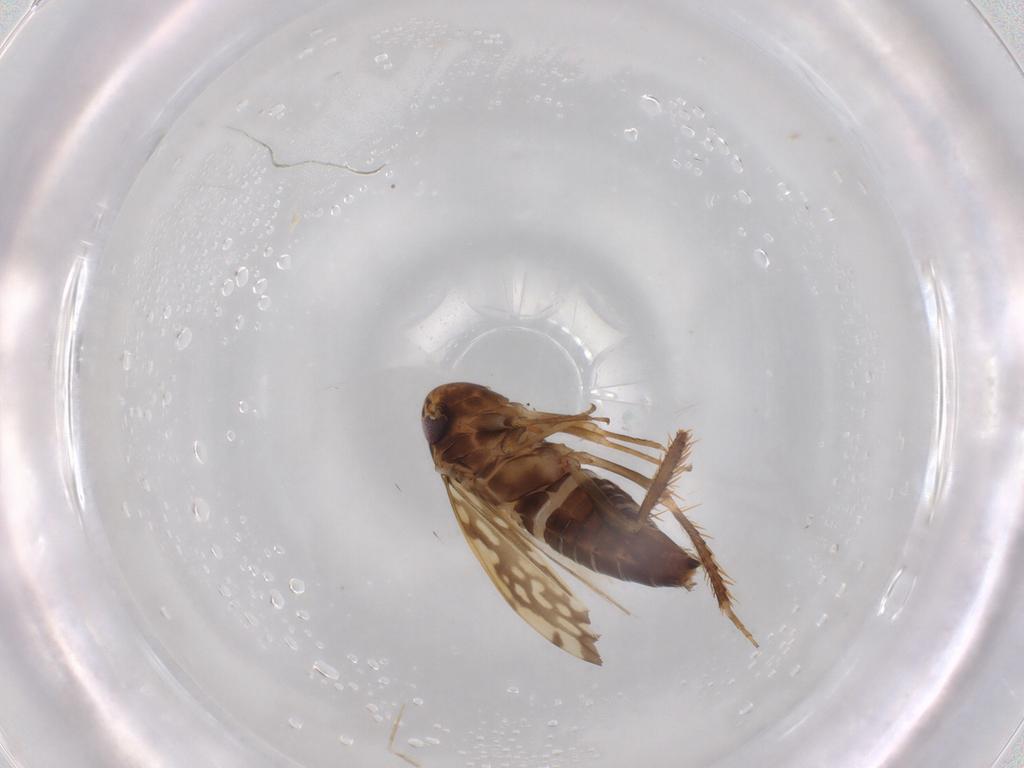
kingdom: Animalia
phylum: Arthropoda
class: Insecta
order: Hemiptera
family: Cicadellidae
